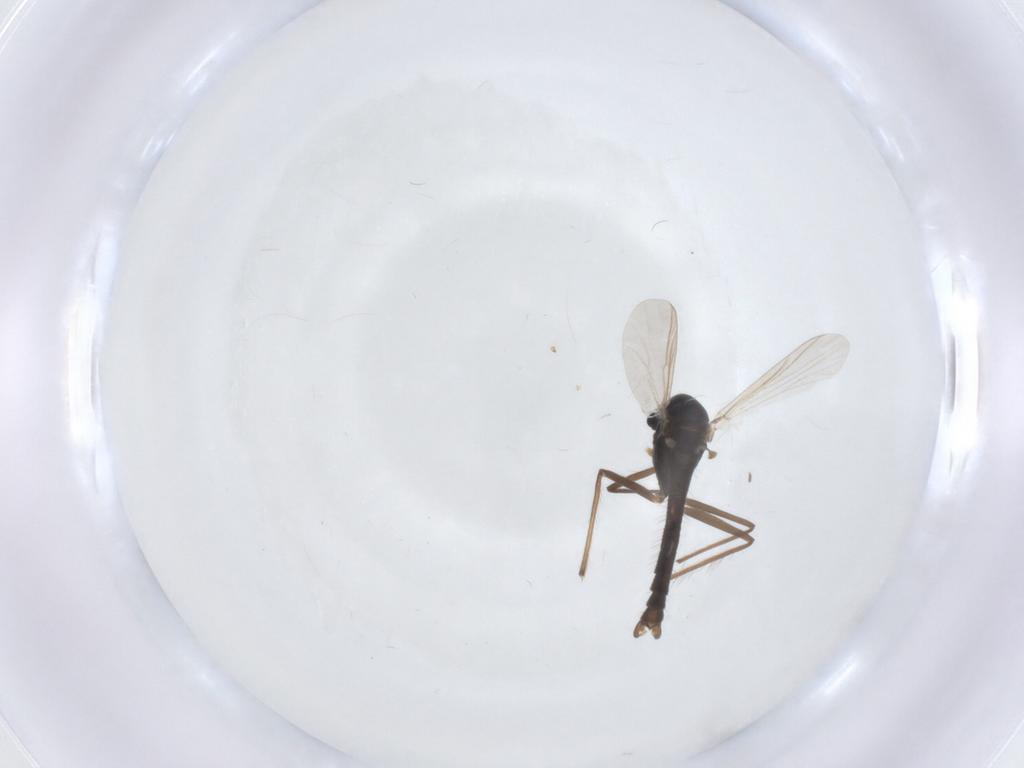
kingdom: Animalia
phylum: Arthropoda
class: Insecta
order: Diptera
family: Chironomidae
